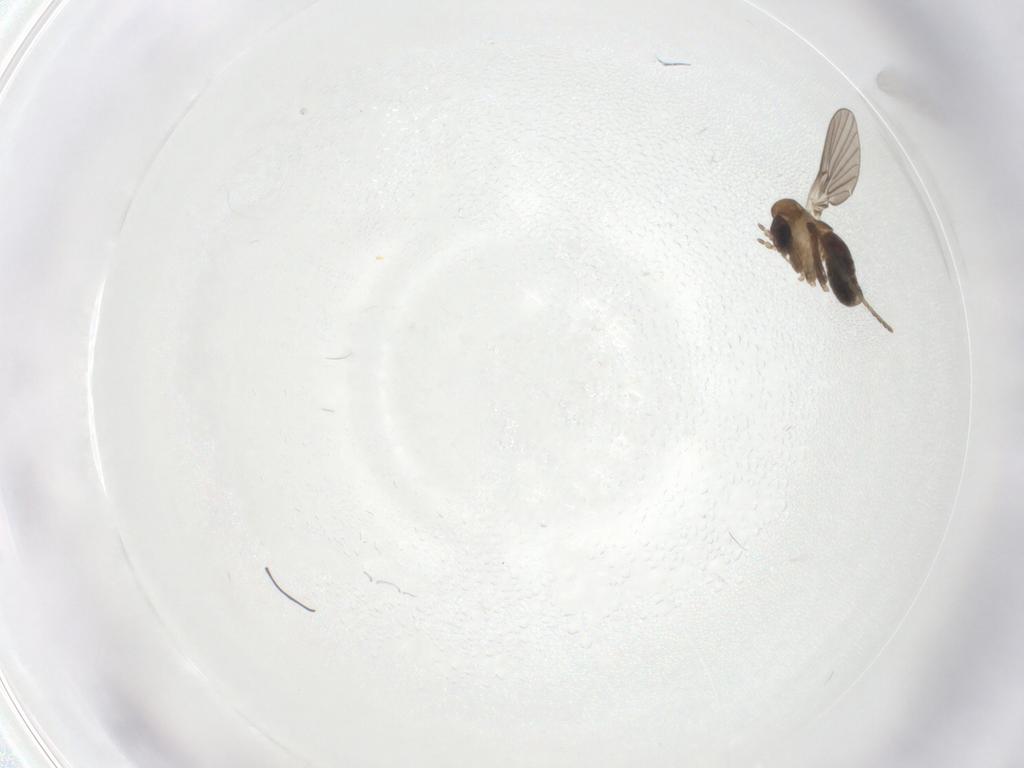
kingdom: Animalia
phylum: Arthropoda
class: Insecta
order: Diptera
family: Psychodidae
